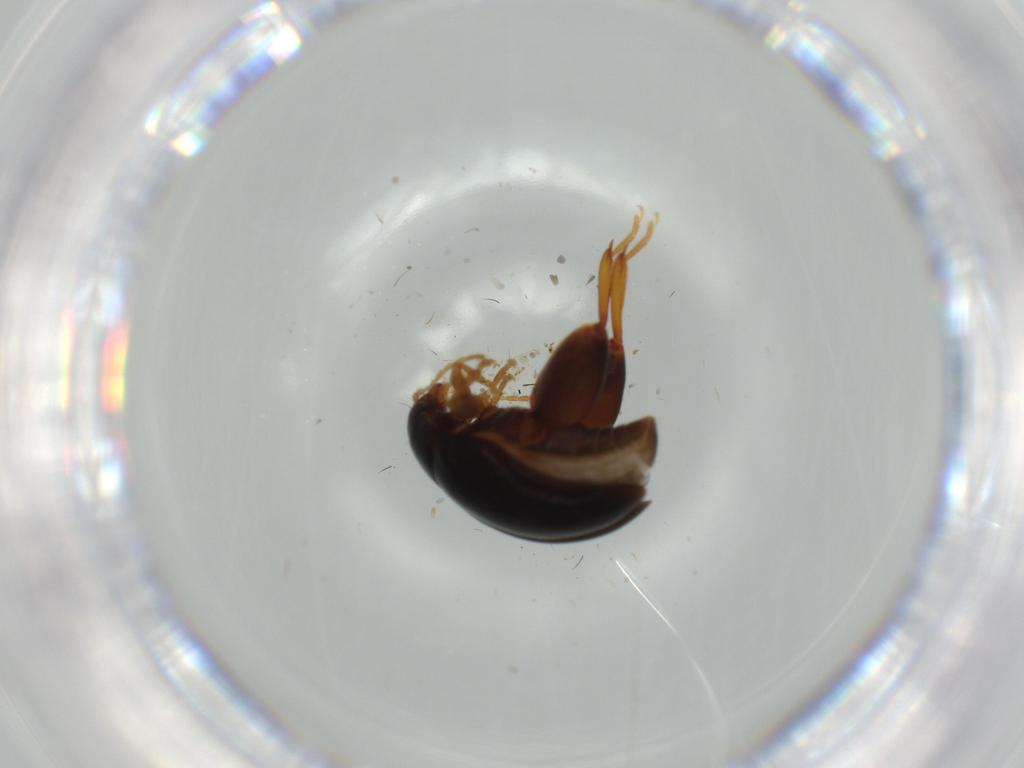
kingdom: Animalia
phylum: Arthropoda
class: Insecta
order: Coleoptera
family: Chrysomelidae
